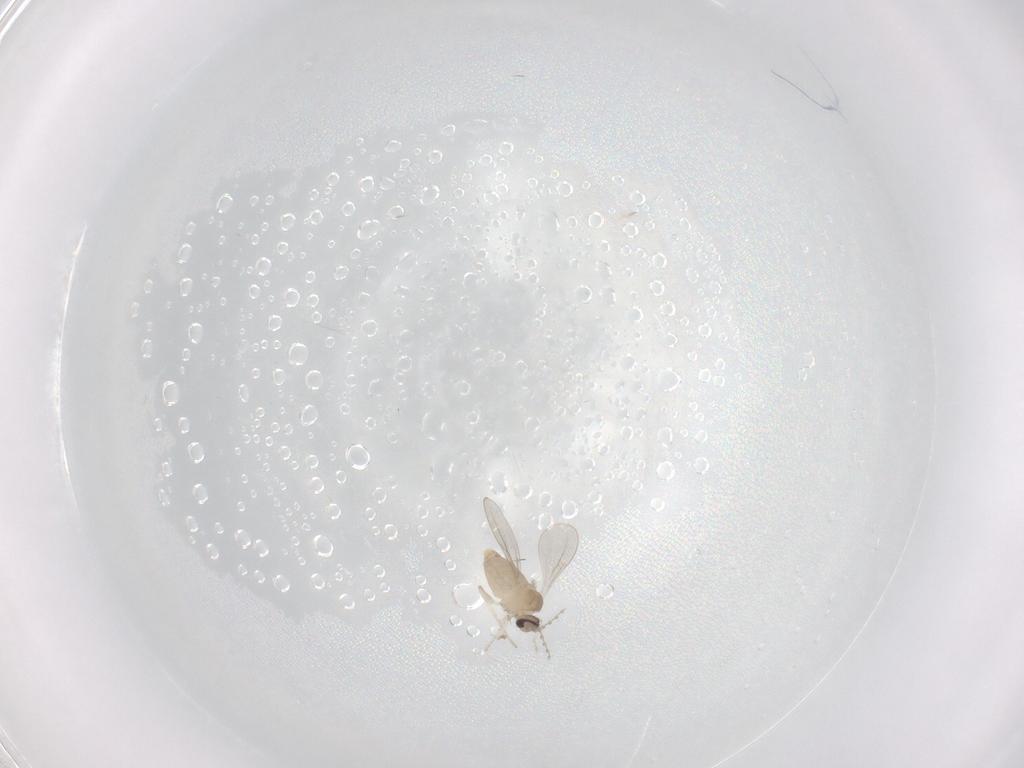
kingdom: Animalia
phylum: Arthropoda
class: Insecta
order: Diptera
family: Cecidomyiidae
